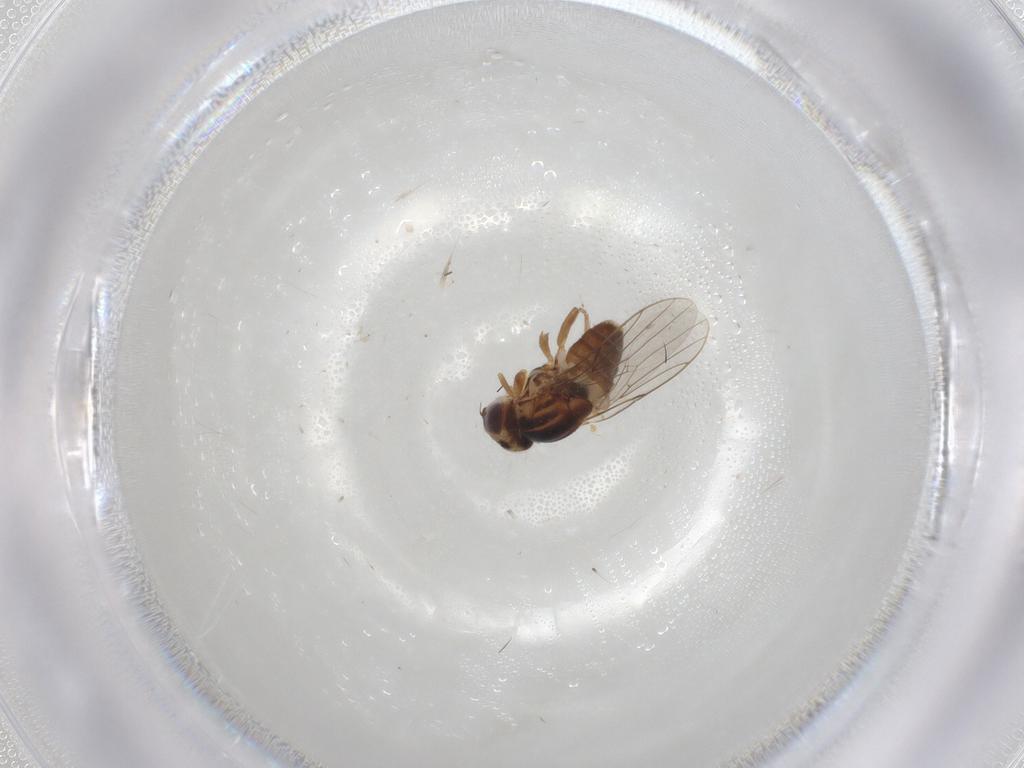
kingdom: Animalia
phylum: Arthropoda
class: Insecta
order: Diptera
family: Chloropidae
